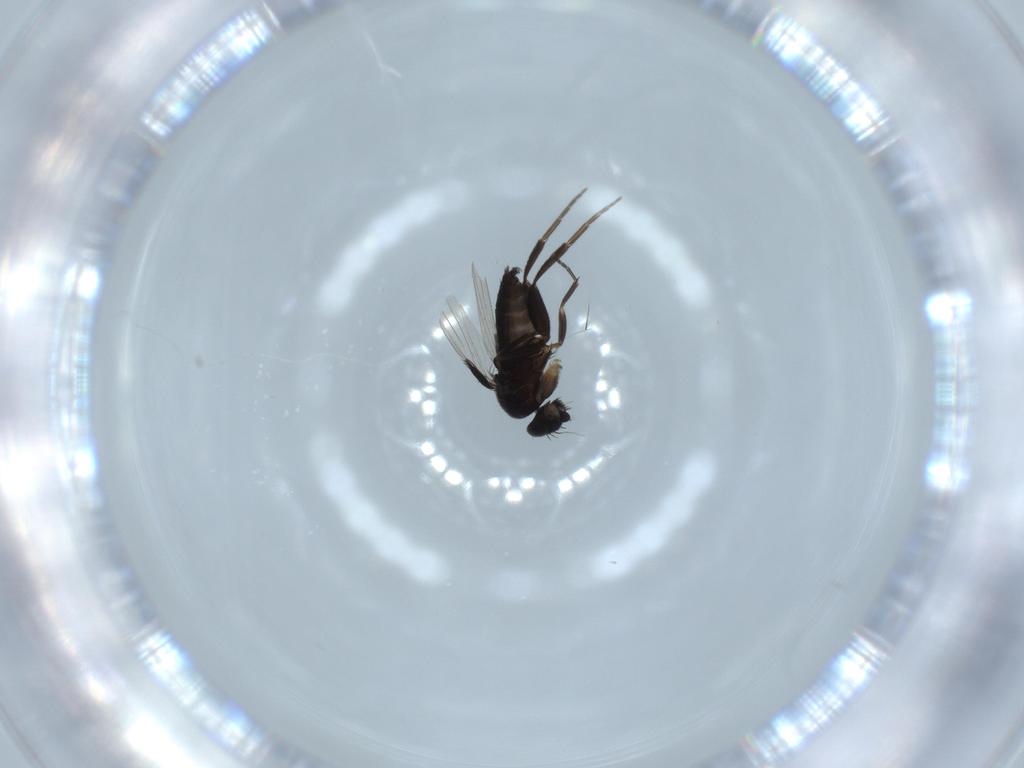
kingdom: Animalia
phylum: Arthropoda
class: Insecta
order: Diptera
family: Phoridae
